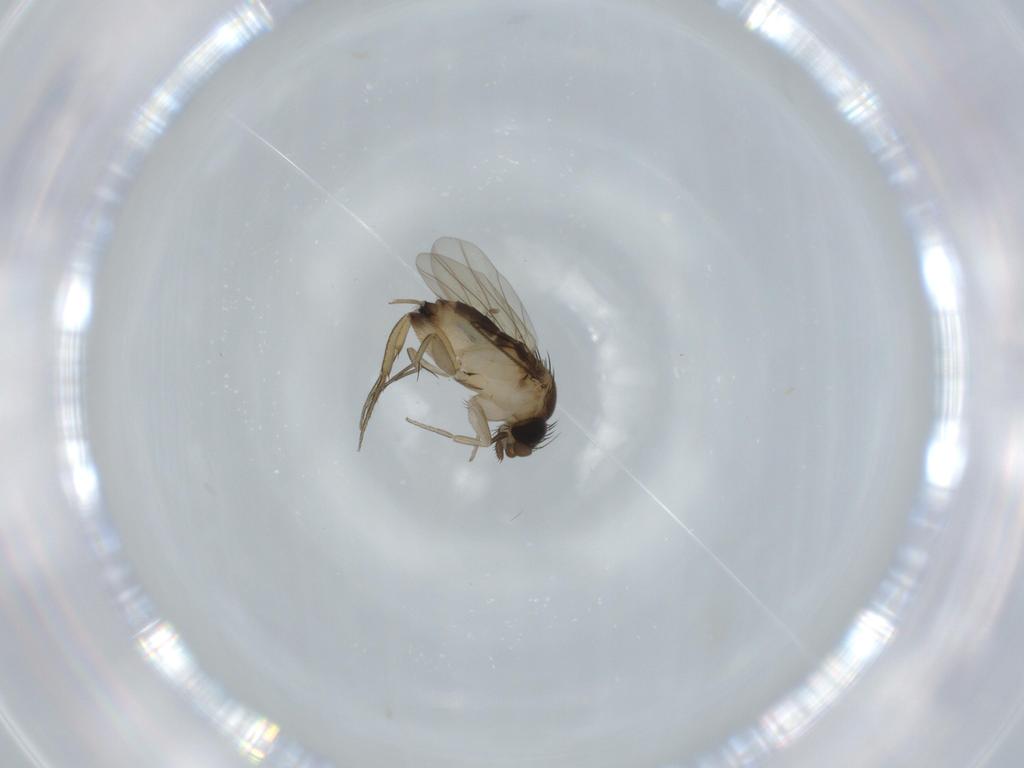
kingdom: Animalia
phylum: Arthropoda
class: Insecta
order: Diptera
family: Phoridae
